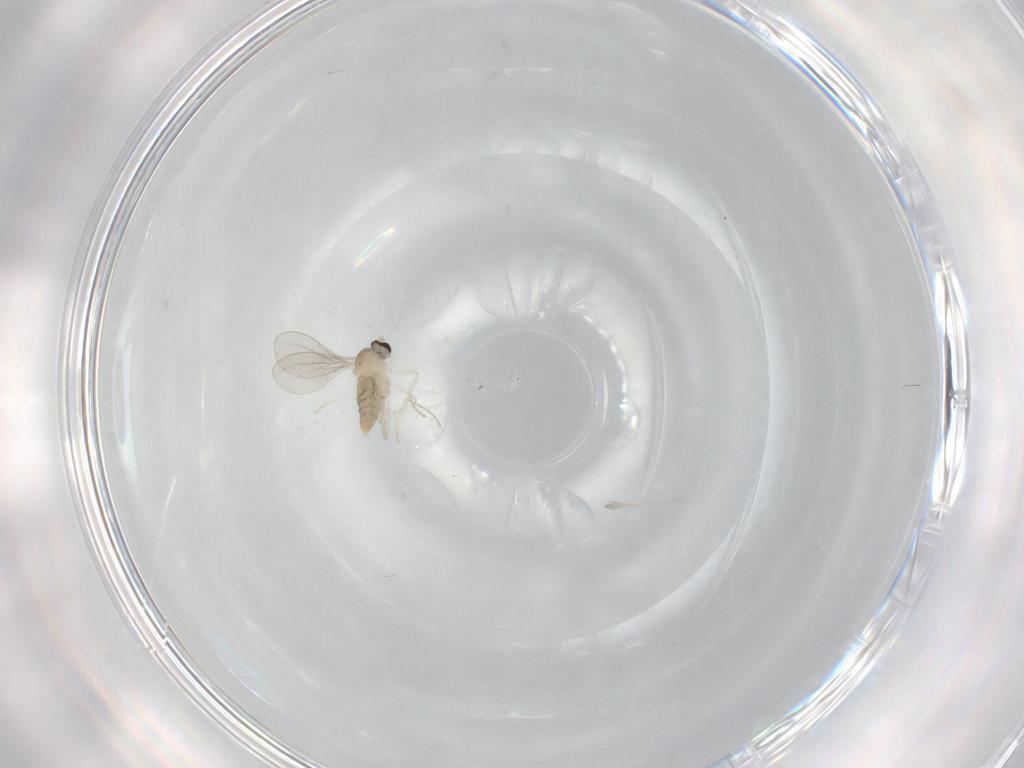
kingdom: Animalia
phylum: Arthropoda
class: Insecta
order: Diptera
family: Cecidomyiidae
